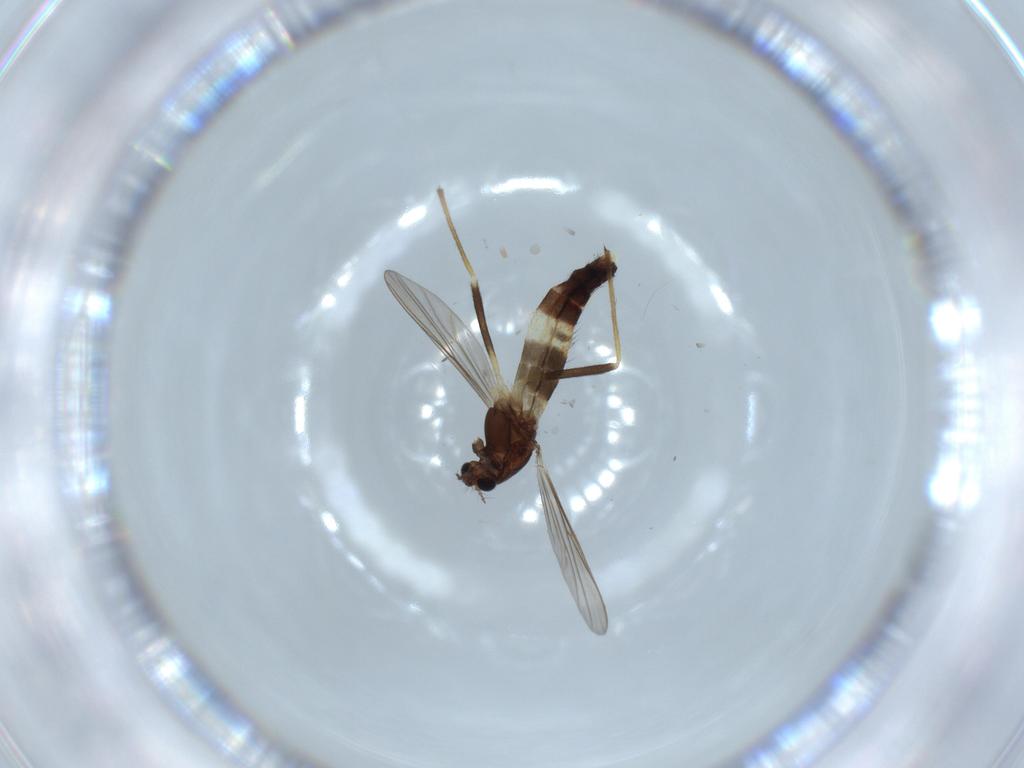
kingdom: Animalia
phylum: Arthropoda
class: Insecta
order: Diptera
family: Chironomidae
